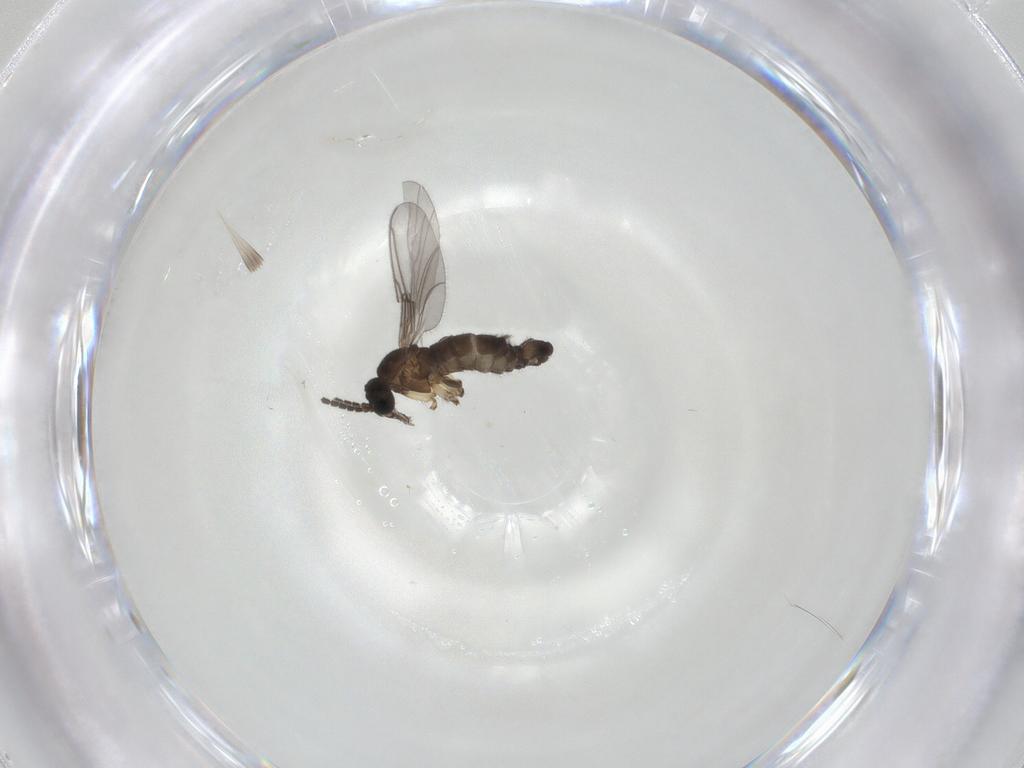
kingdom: Animalia
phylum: Arthropoda
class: Insecta
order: Diptera
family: Sciaridae
